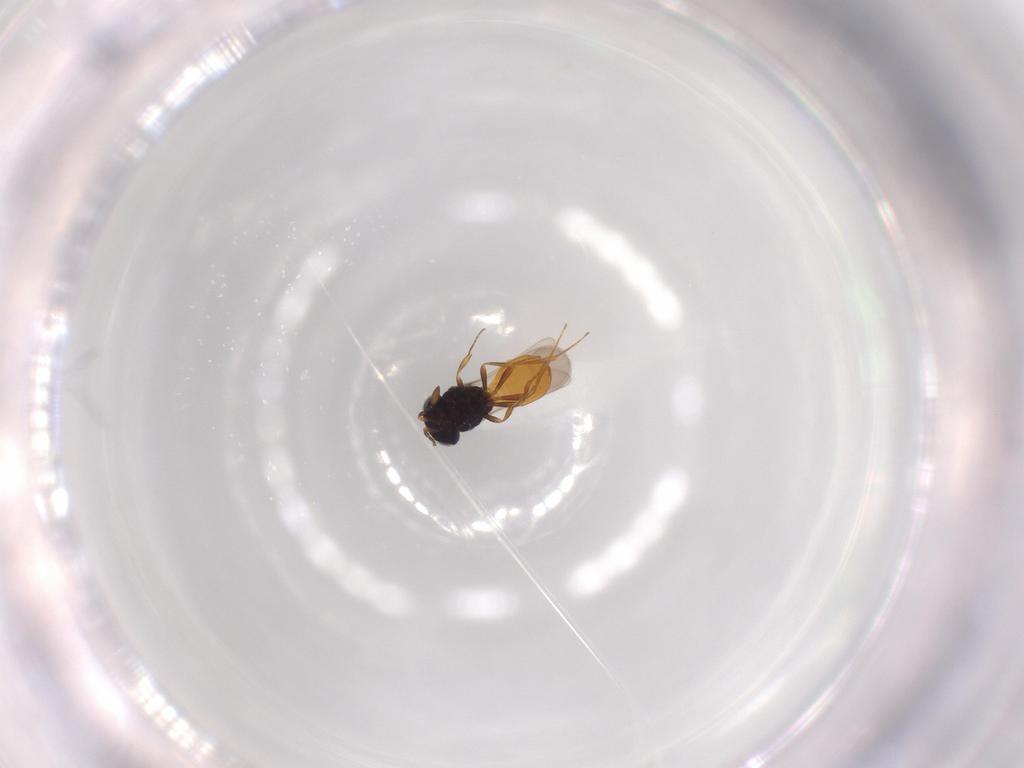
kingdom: Animalia
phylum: Arthropoda
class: Insecta
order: Hymenoptera
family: Scelionidae
